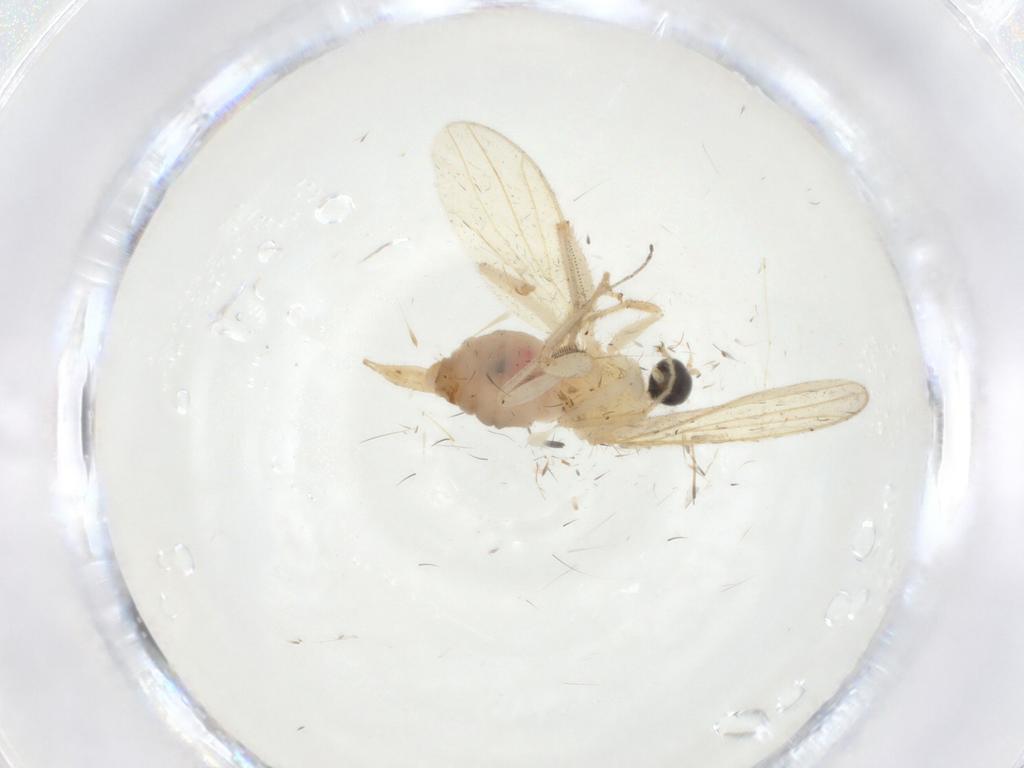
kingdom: Animalia
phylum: Arthropoda
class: Insecta
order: Diptera
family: Hybotidae
